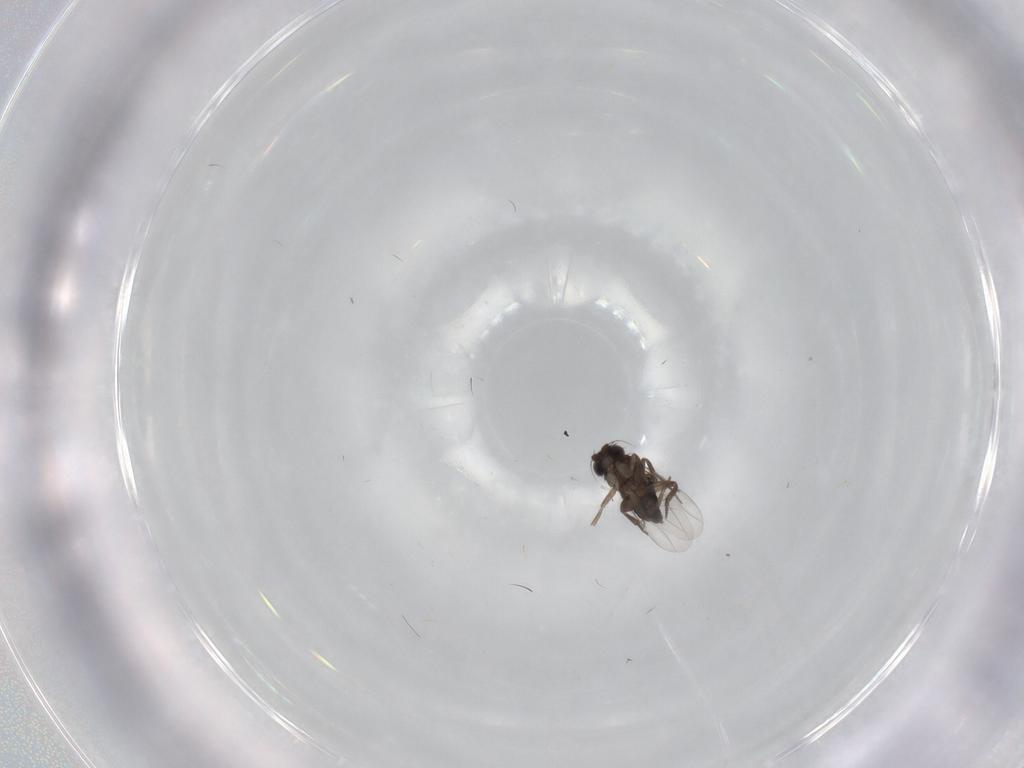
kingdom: Animalia
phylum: Arthropoda
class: Insecta
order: Diptera
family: Phoridae
